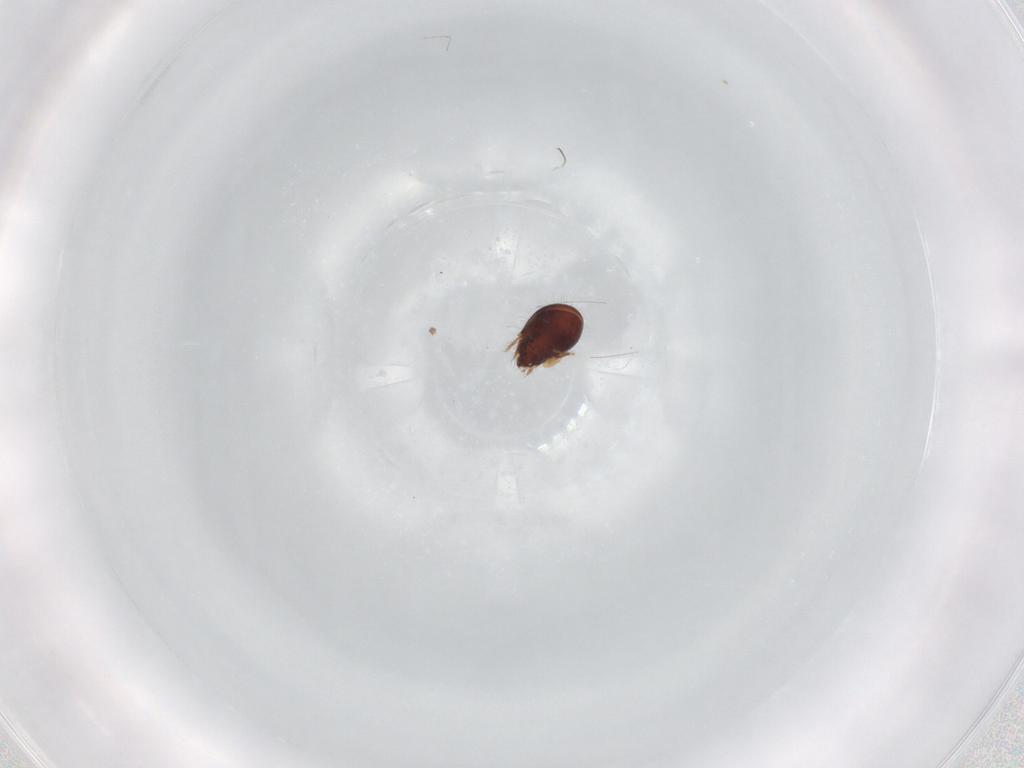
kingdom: Animalia
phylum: Arthropoda
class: Arachnida
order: Sarcoptiformes
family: Humerobatidae
